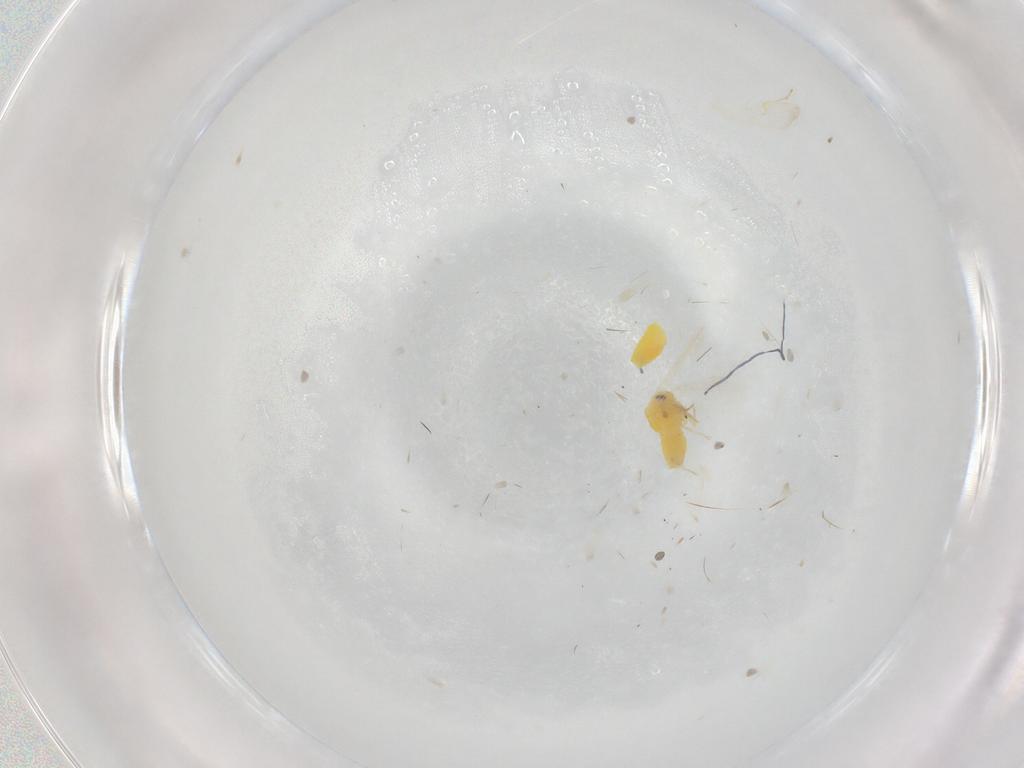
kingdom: Animalia
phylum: Arthropoda
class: Insecta
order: Hemiptera
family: Aleyrodidae
